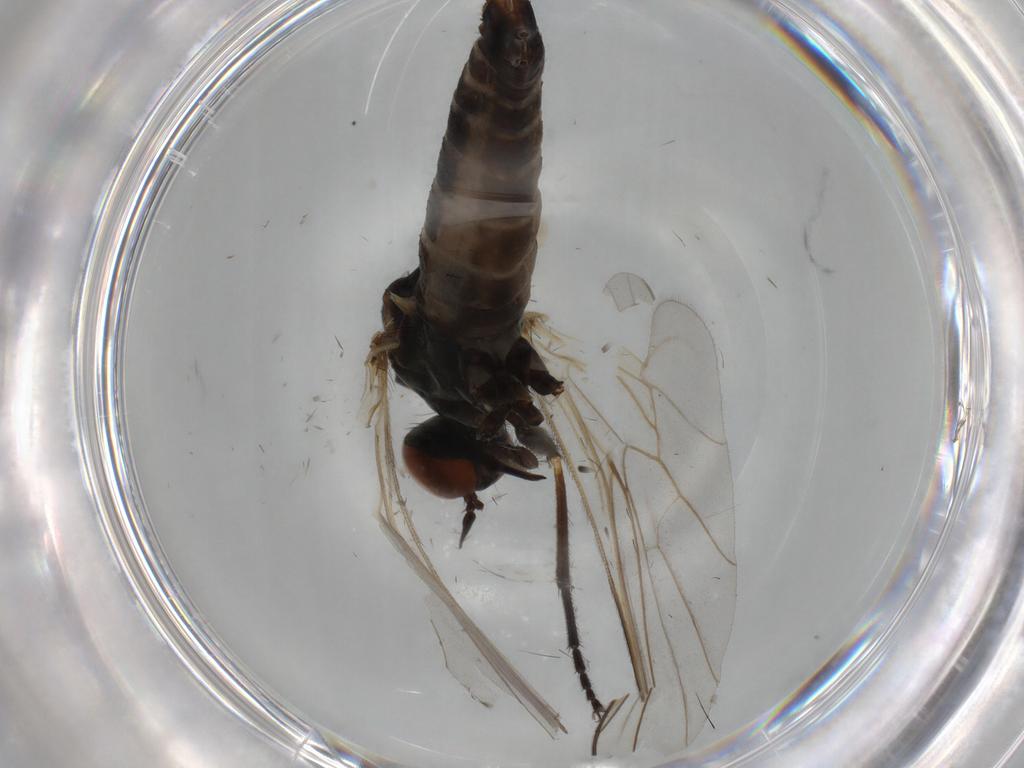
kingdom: Animalia
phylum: Arthropoda
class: Insecta
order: Diptera
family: Empididae
